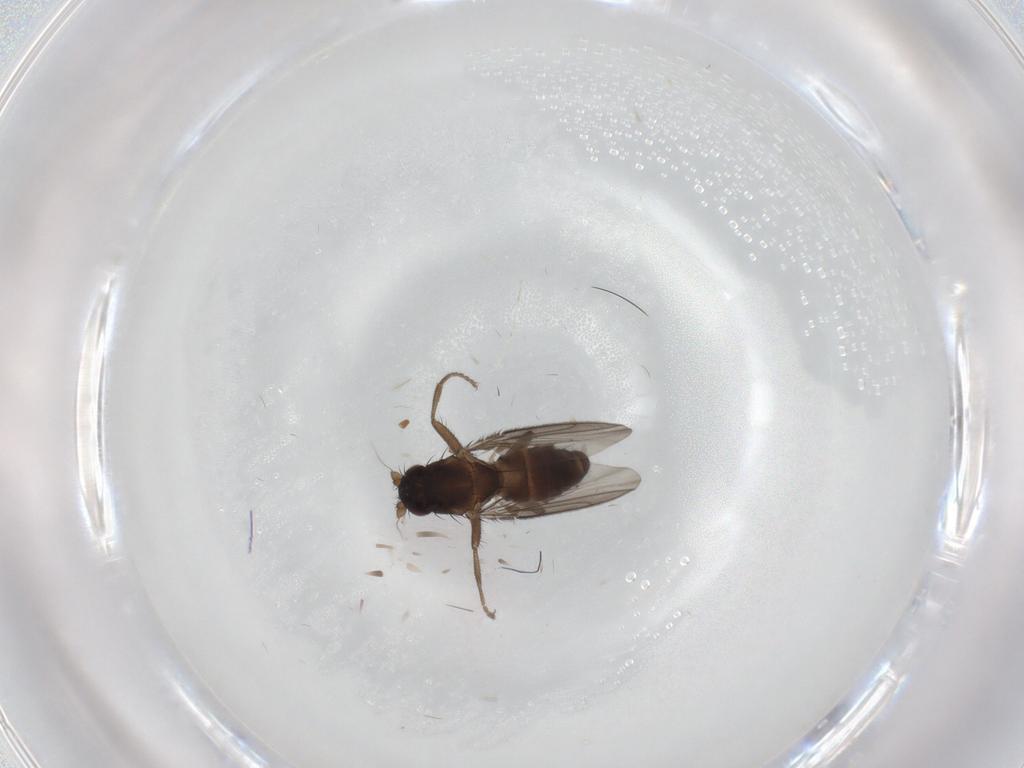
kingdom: Animalia
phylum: Arthropoda
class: Insecta
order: Diptera
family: Sphaeroceridae
